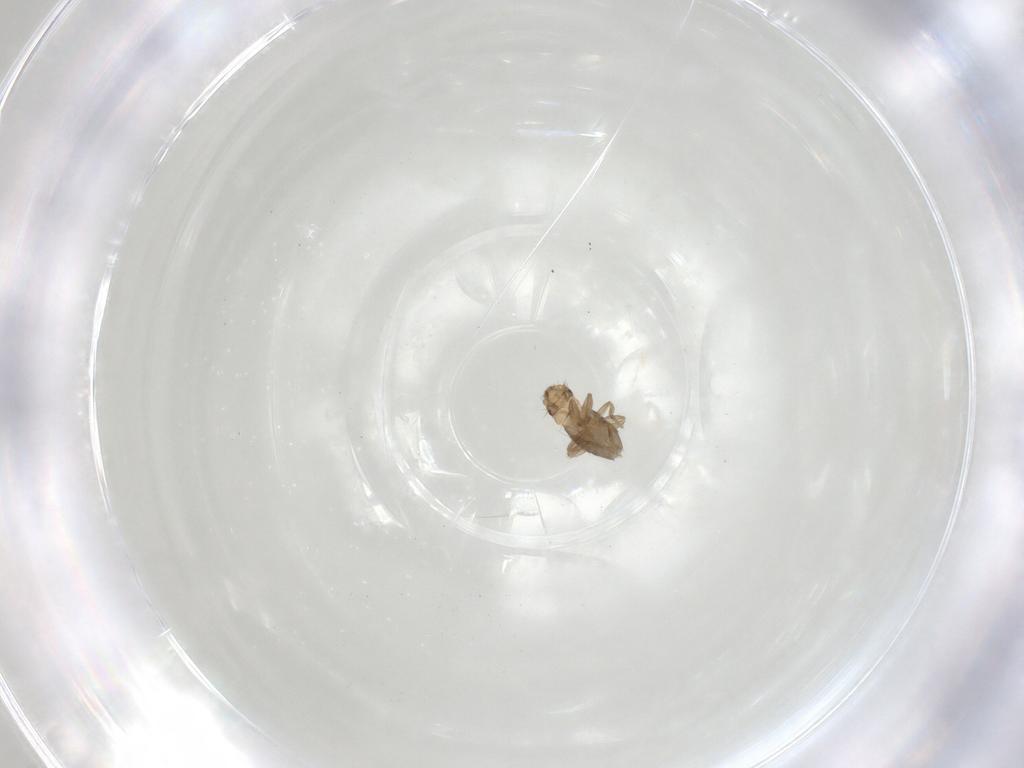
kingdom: Animalia
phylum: Arthropoda
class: Insecta
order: Diptera
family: Phoridae
